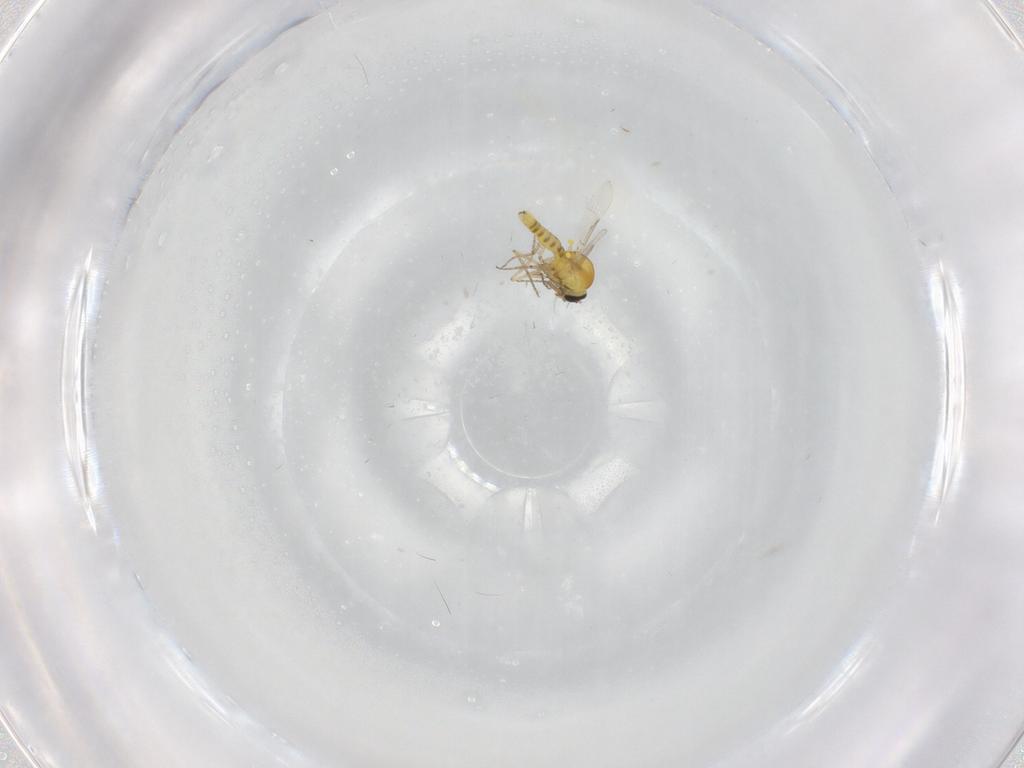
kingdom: Animalia
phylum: Arthropoda
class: Insecta
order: Diptera
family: Ceratopogonidae
